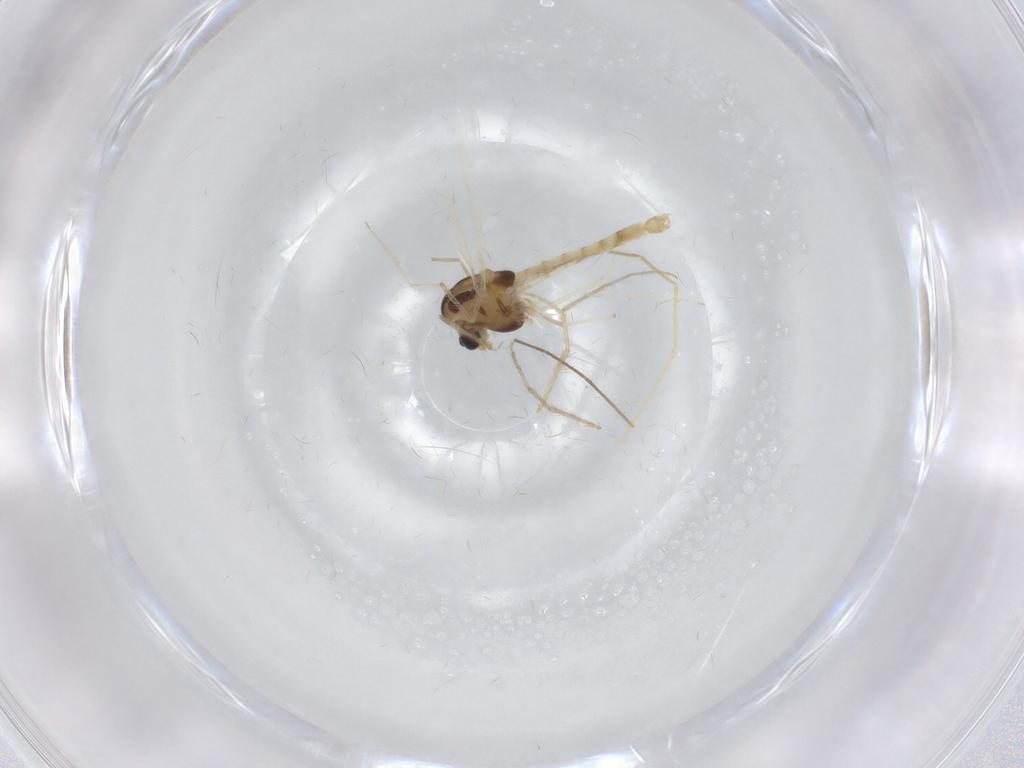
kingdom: Animalia
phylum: Arthropoda
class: Insecta
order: Diptera
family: Chironomidae
